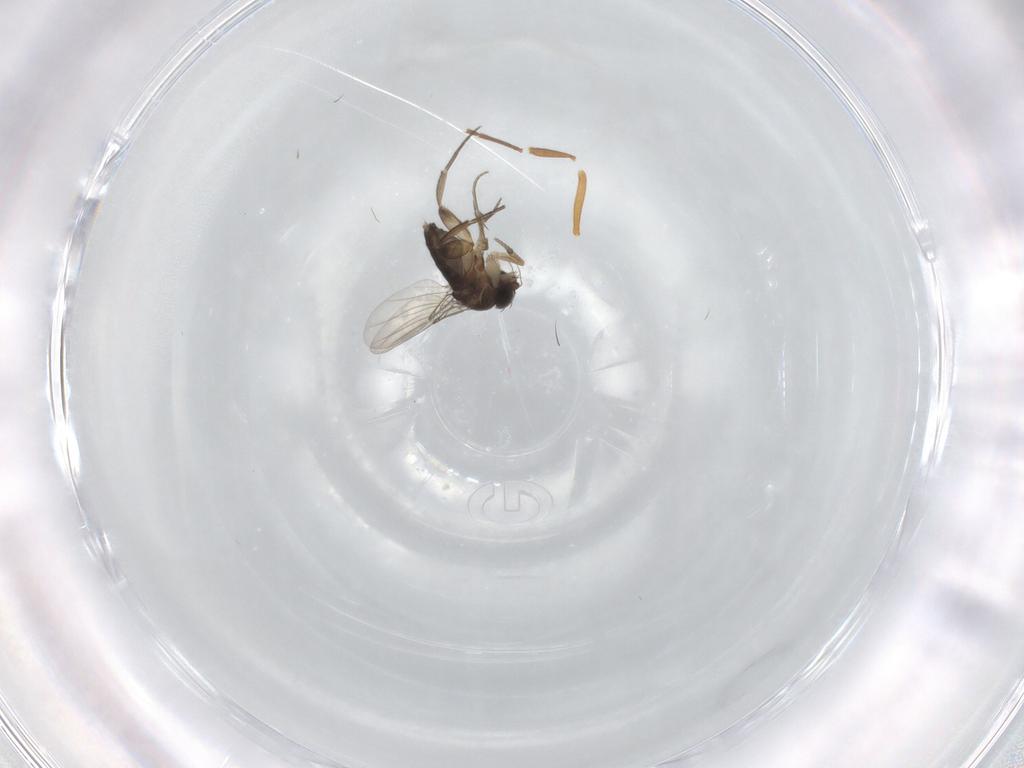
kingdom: Animalia
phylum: Arthropoda
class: Insecta
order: Diptera
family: Phoridae
